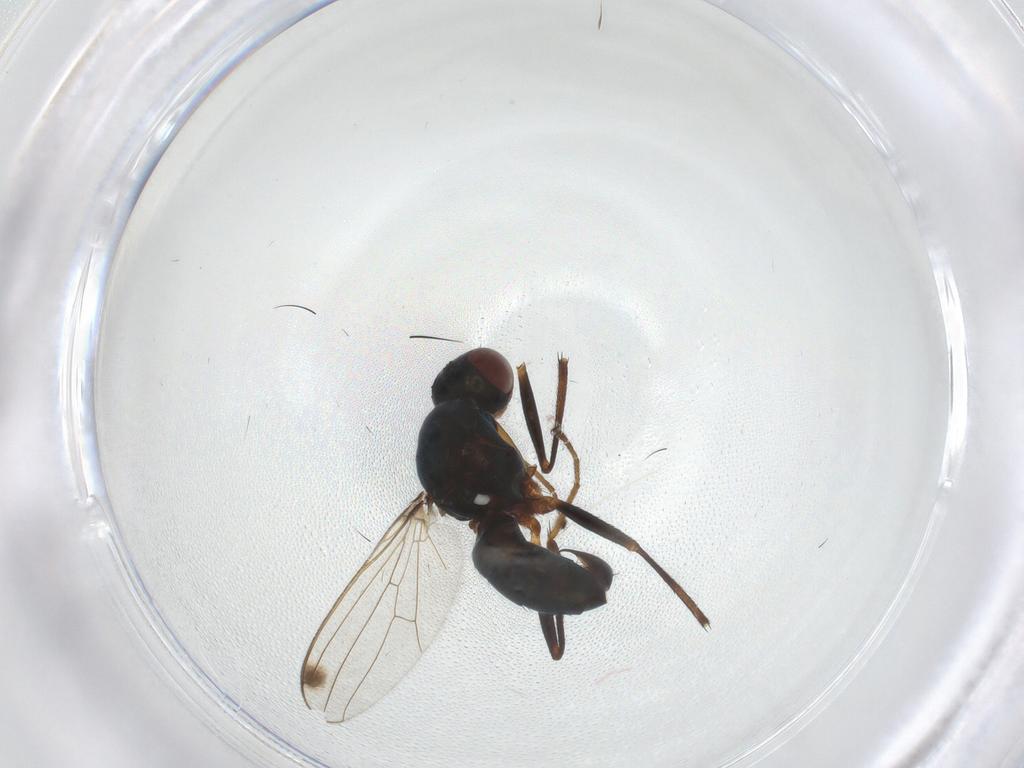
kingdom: Animalia
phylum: Arthropoda
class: Insecta
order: Diptera
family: Sepsidae
